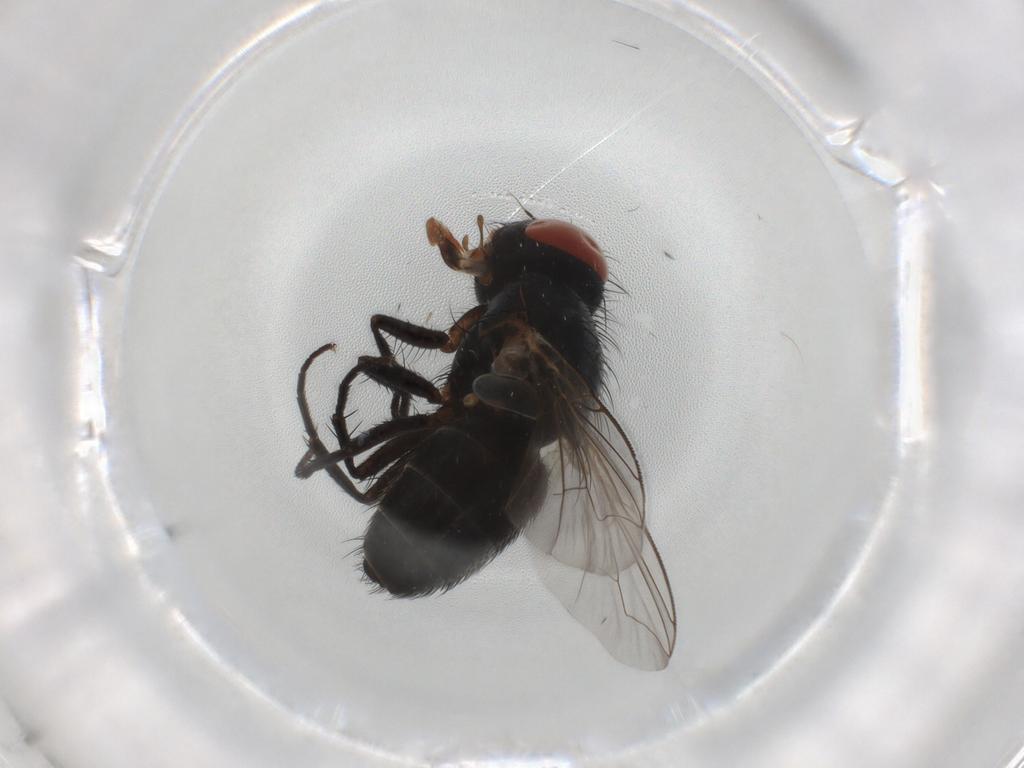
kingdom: Animalia
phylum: Arthropoda
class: Insecta
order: Diptera
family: Sarcophagidae
